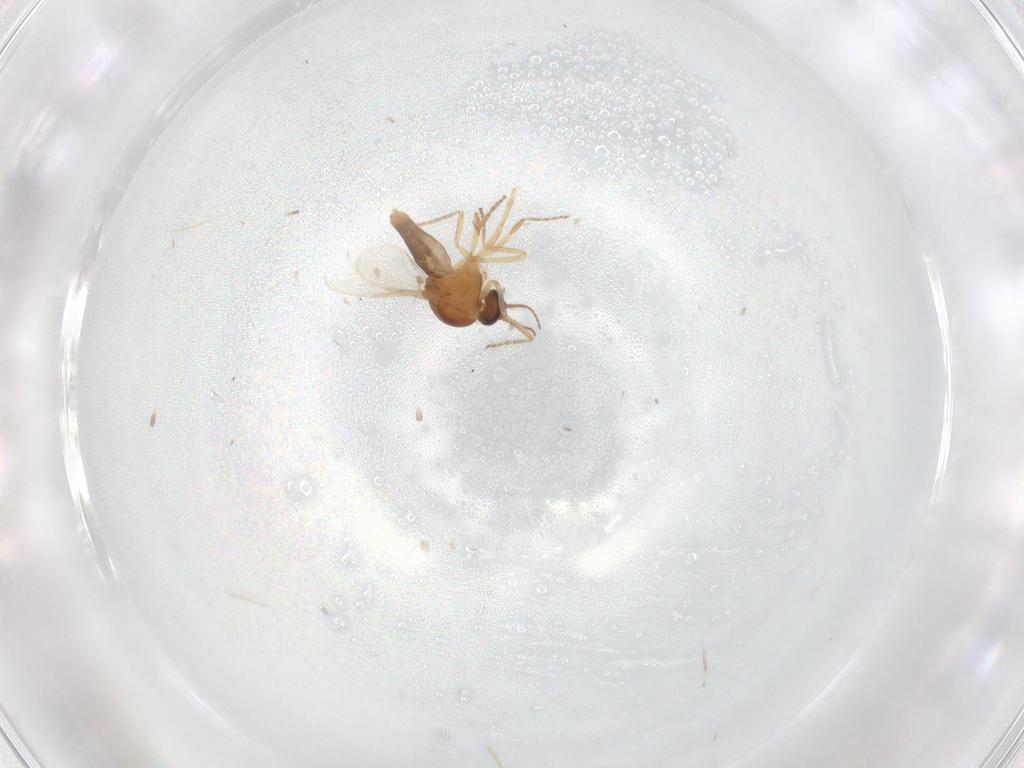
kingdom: Animalia
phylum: Arthropoda
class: Insecta
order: Diptera
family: Ceratopogonidae
